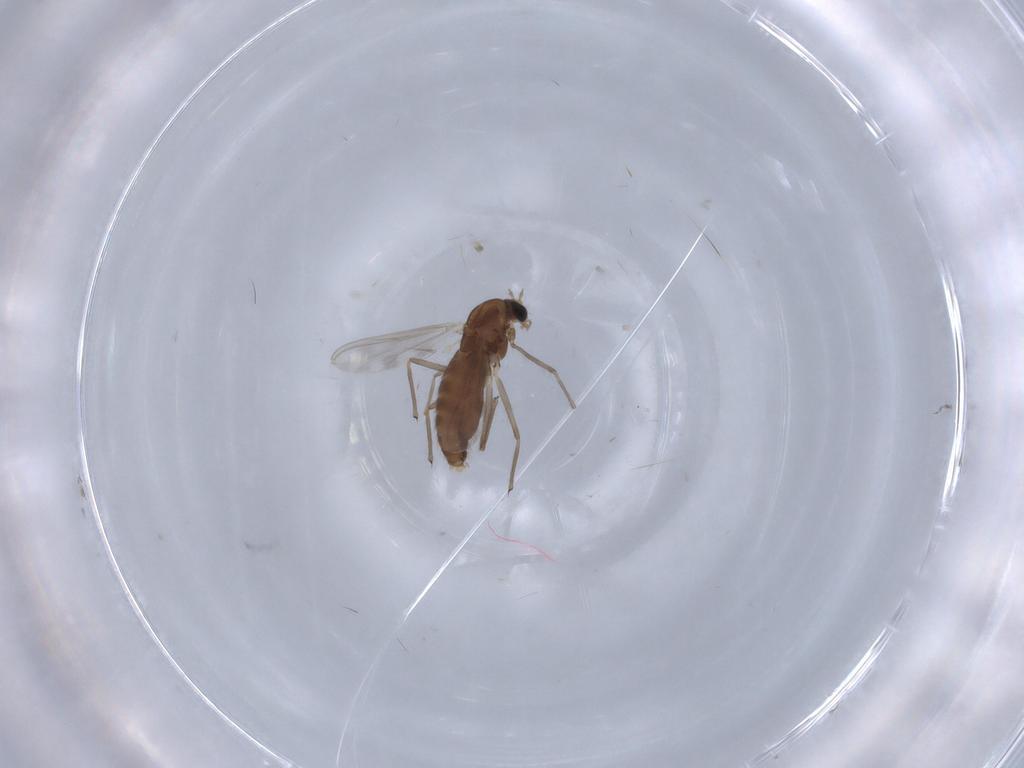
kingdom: Animalia
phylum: Arthropoda
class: Insecta
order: Diptera
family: Chironomidae
